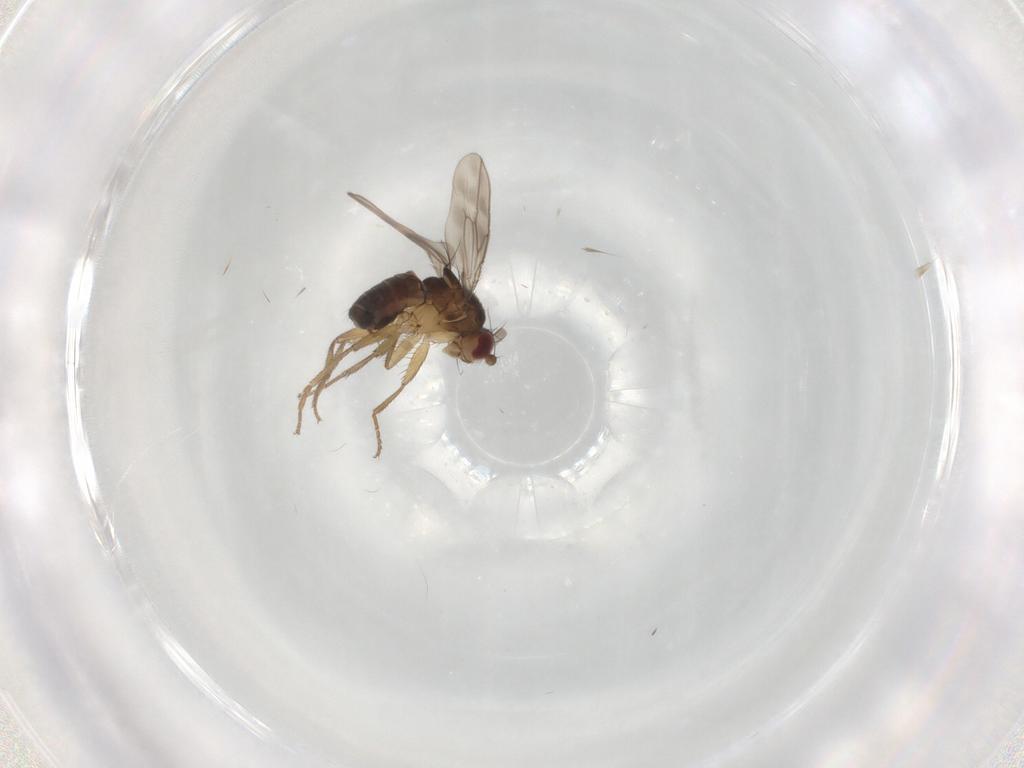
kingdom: Animalia
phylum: Arthropoda
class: Insecta
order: Diptera
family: Sphaeroceridae
